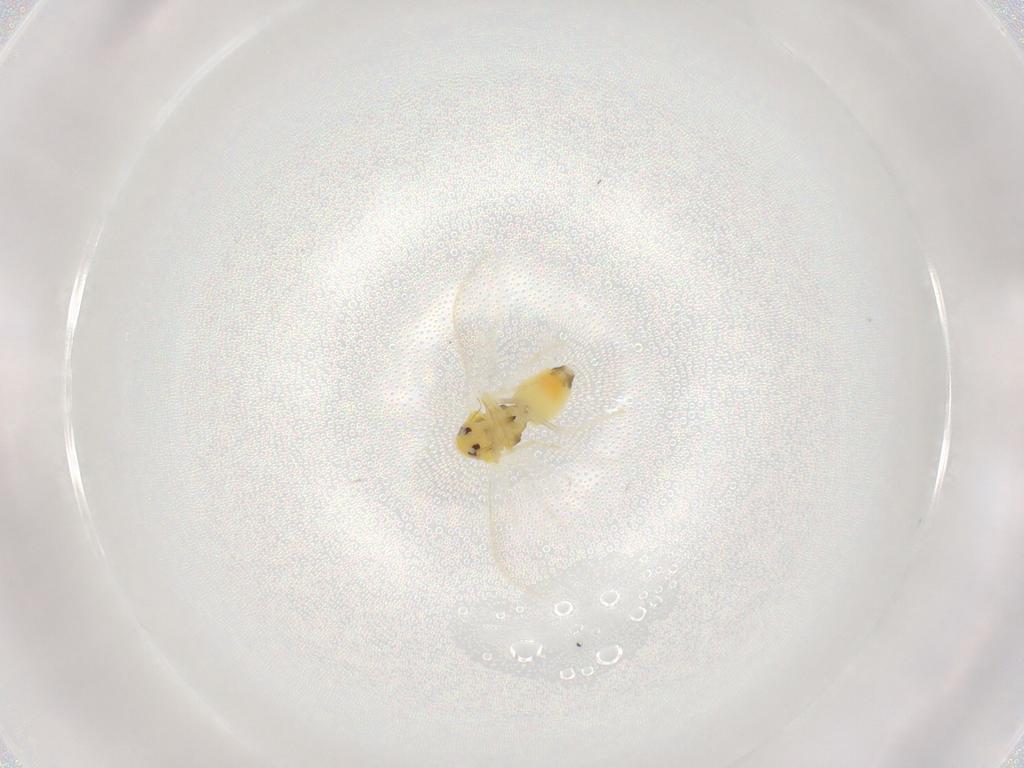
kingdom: Animalia
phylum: Arthropoda
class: Insecta
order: Hemiptera
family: Aleyrodidae
